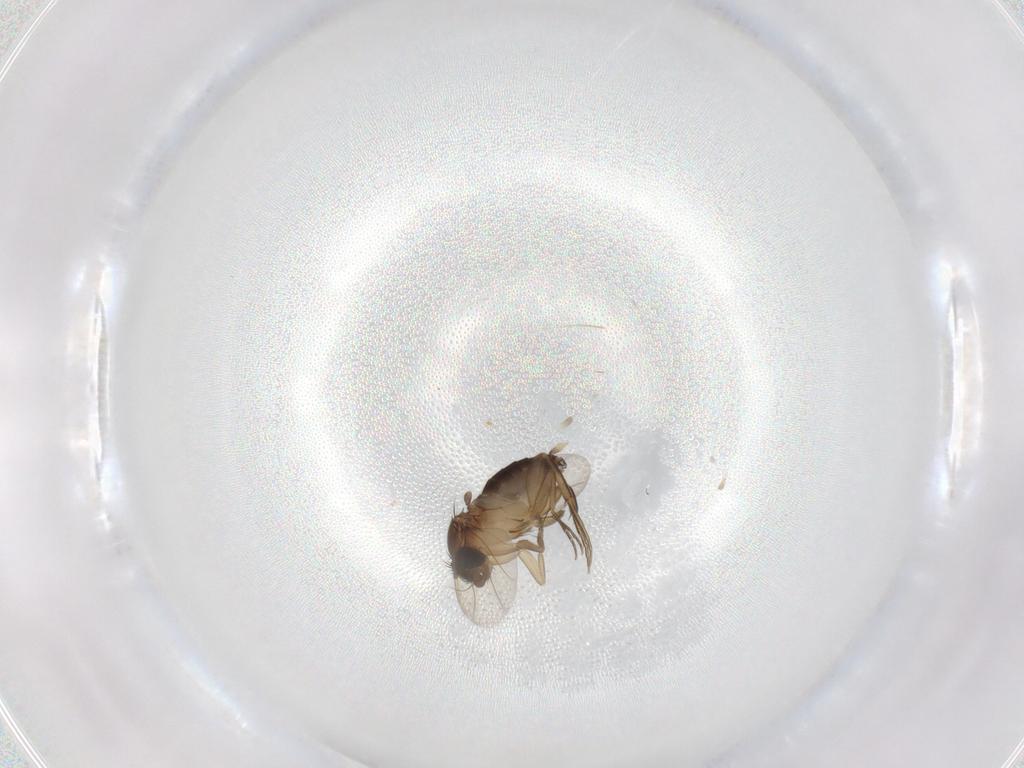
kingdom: Animalia
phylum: Arthropoda
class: Insecta
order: Diptera
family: Phoridae
